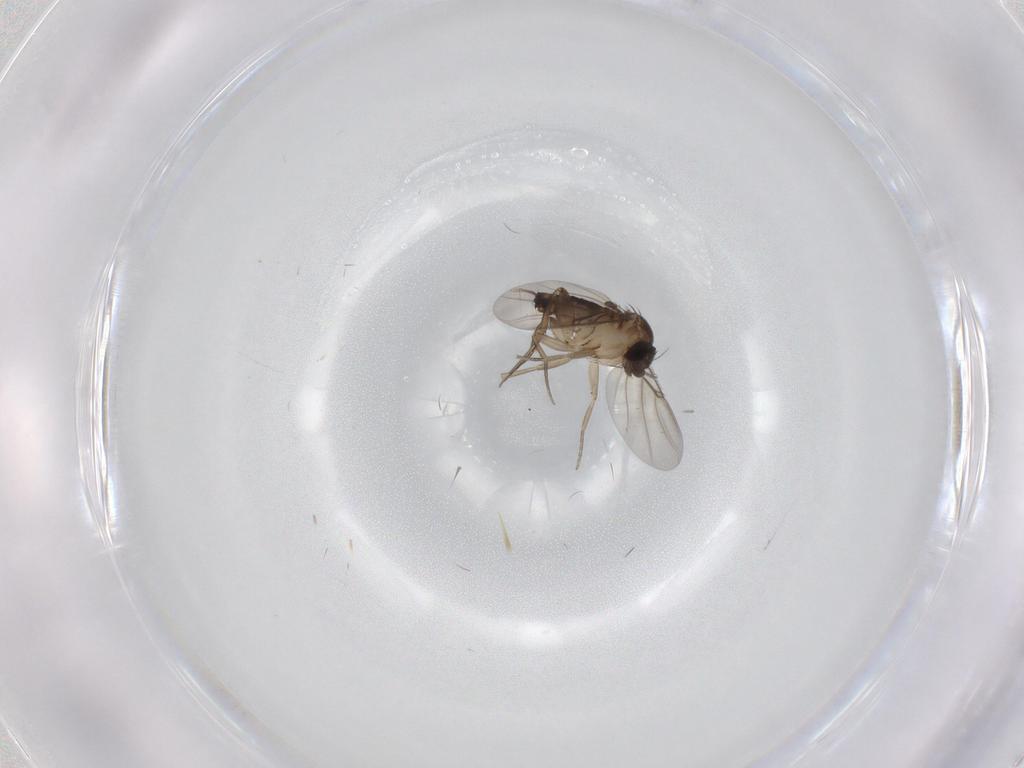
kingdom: Animalia
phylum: Arthropoda
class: Insecta
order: Diptera
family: Phoridae
